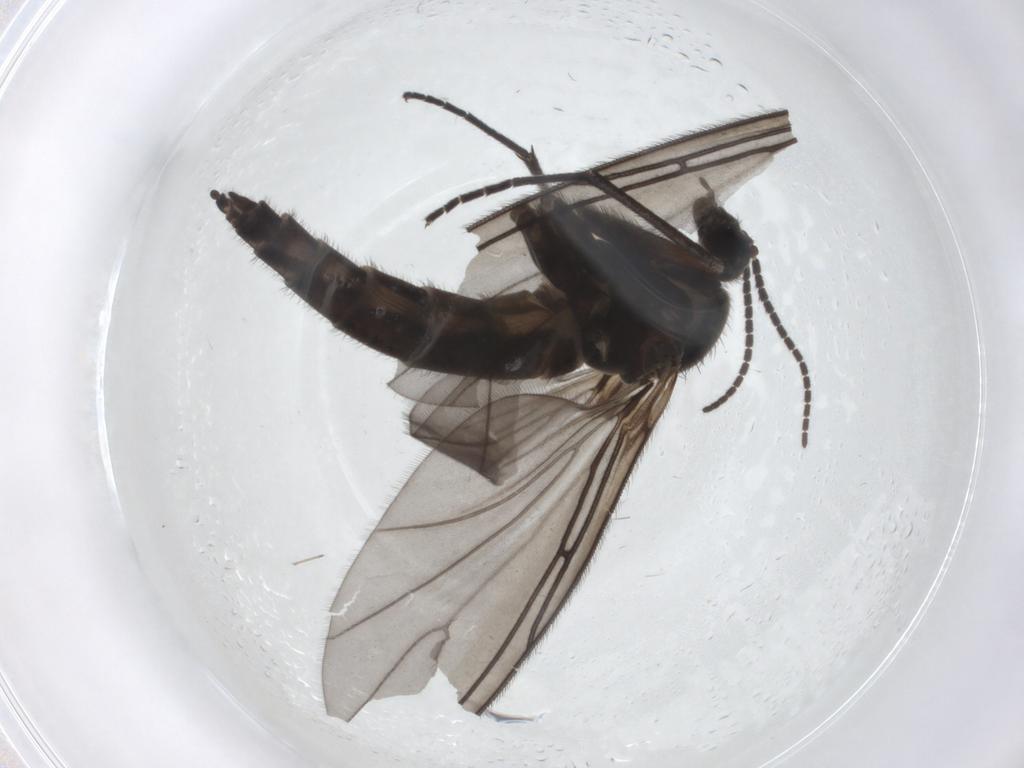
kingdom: Animalia
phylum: Arthropoda
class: Insecta
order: Diptera
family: Sciaridae
